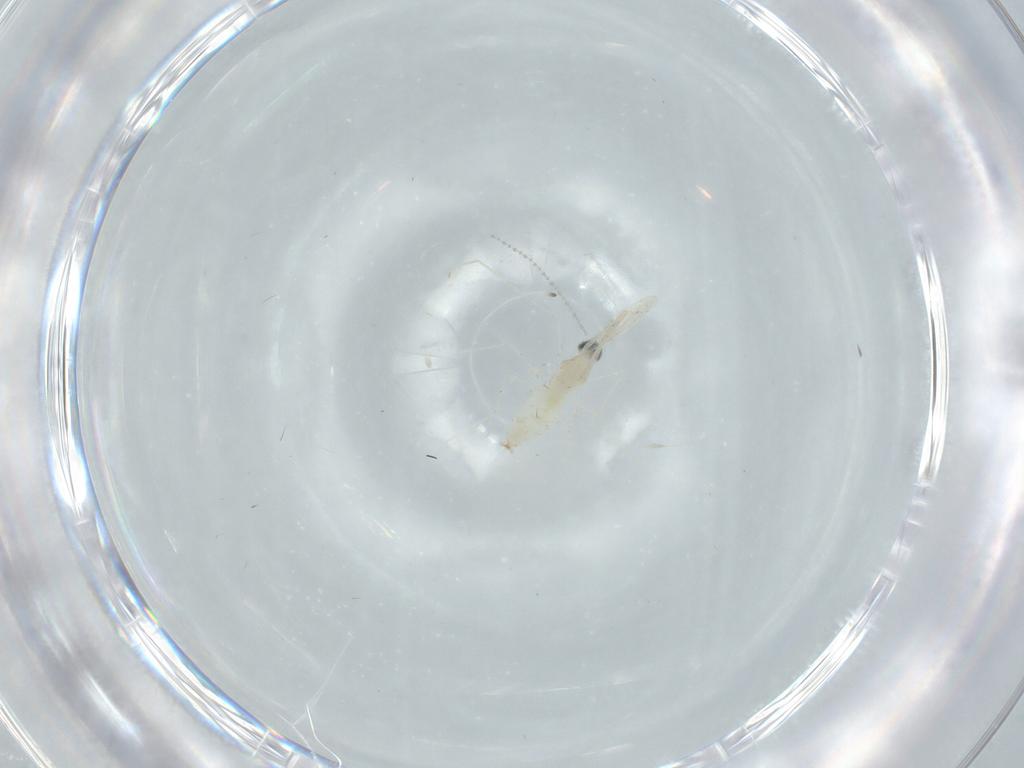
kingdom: Animalia
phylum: Arthropoda
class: Insecta
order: Diptera
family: Cecidomyiidae
